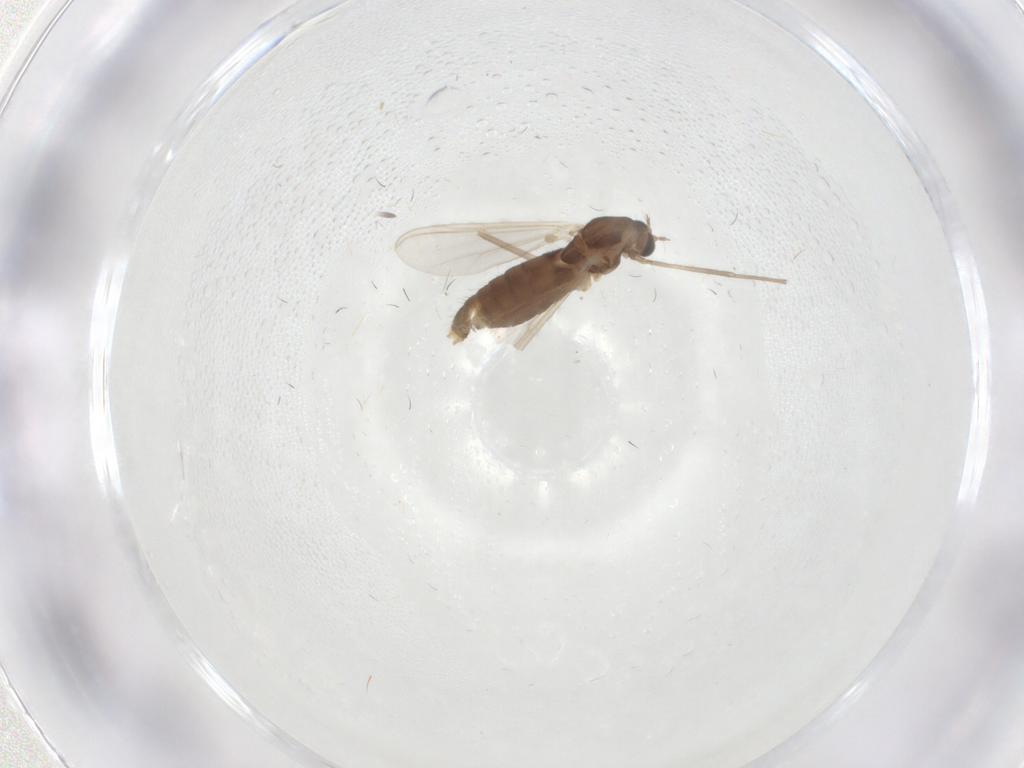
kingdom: Animalia
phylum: Arthropoda
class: Insecta
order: Diptera
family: Chironomidae
